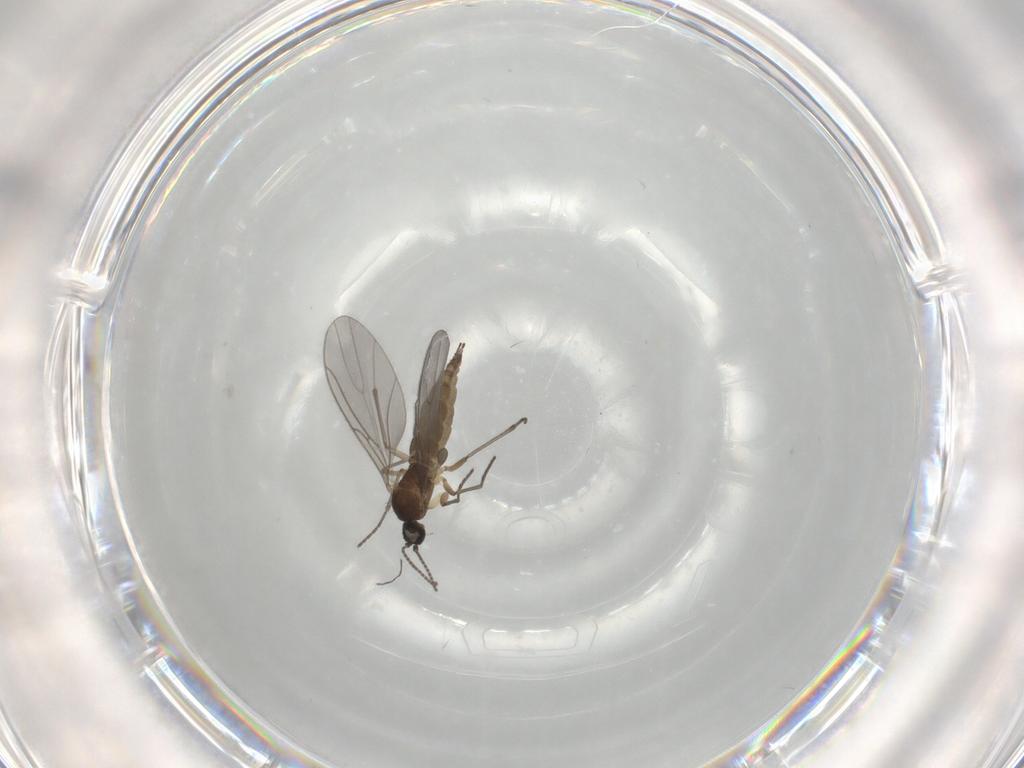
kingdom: Animalia
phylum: Arthropoda
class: Insecta
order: Diptera
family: Sciaridae
